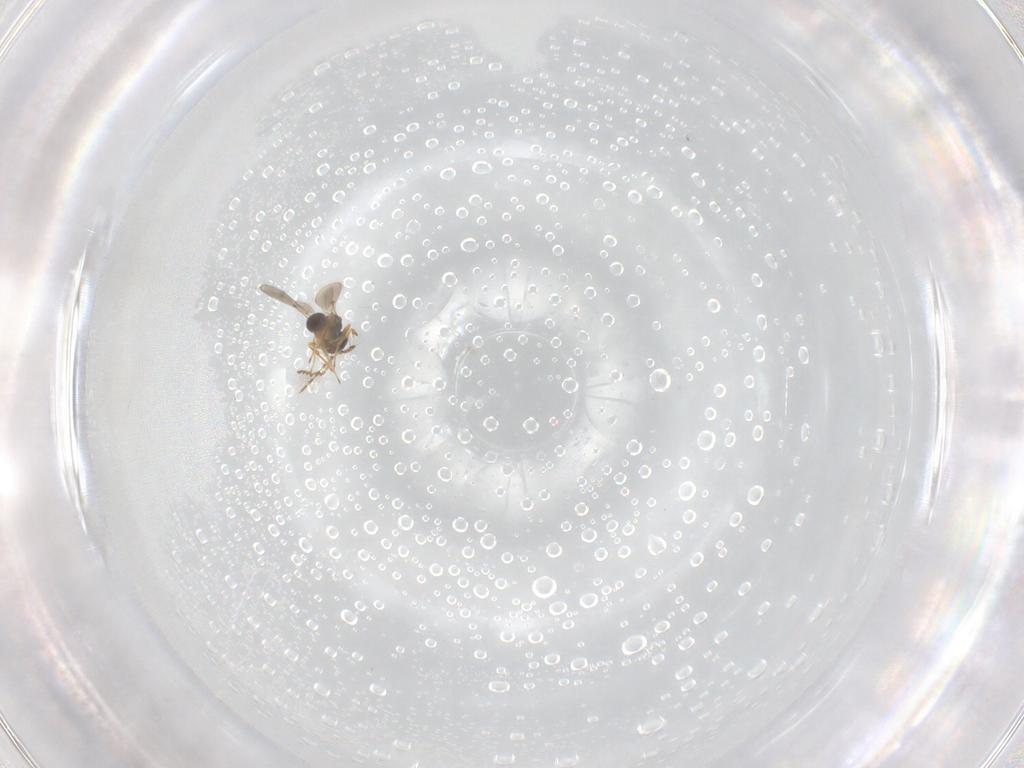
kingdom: Animalia
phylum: Arthropoda
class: Insecta
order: Hymenoptera
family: Platygastridae
